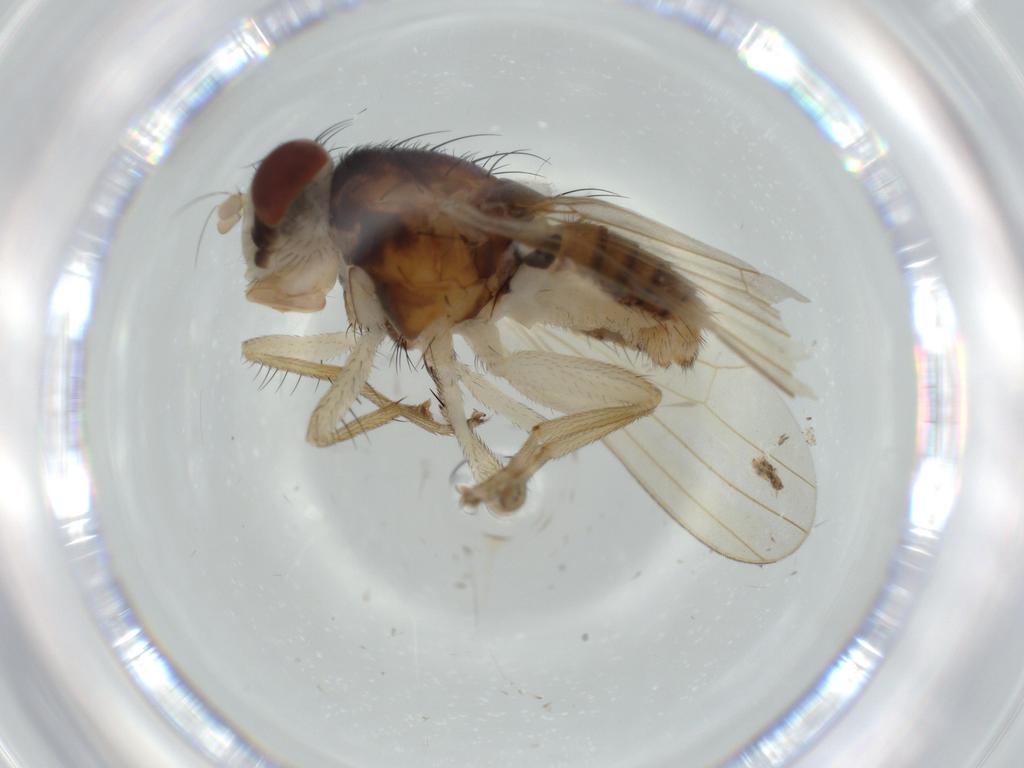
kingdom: Animalia
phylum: Arthropoda
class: Insecta
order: Diptera
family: Lauxaniidae
